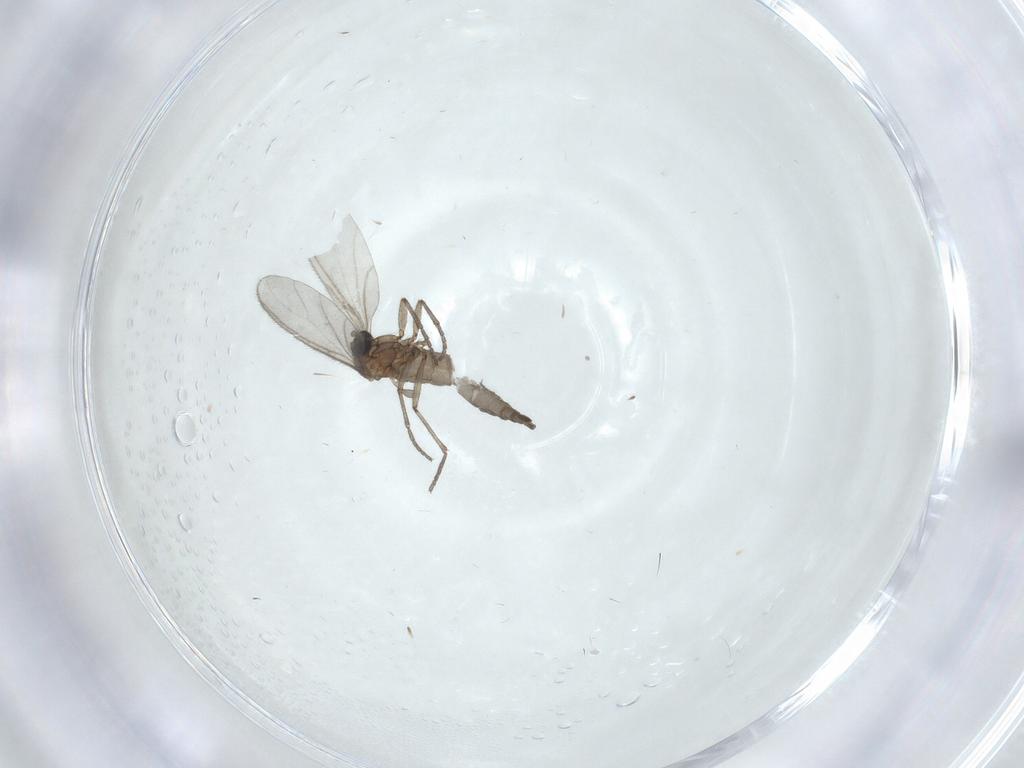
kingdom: Animalia
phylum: Arthropoda
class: Insecta
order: Diptera
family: Sciaridae
